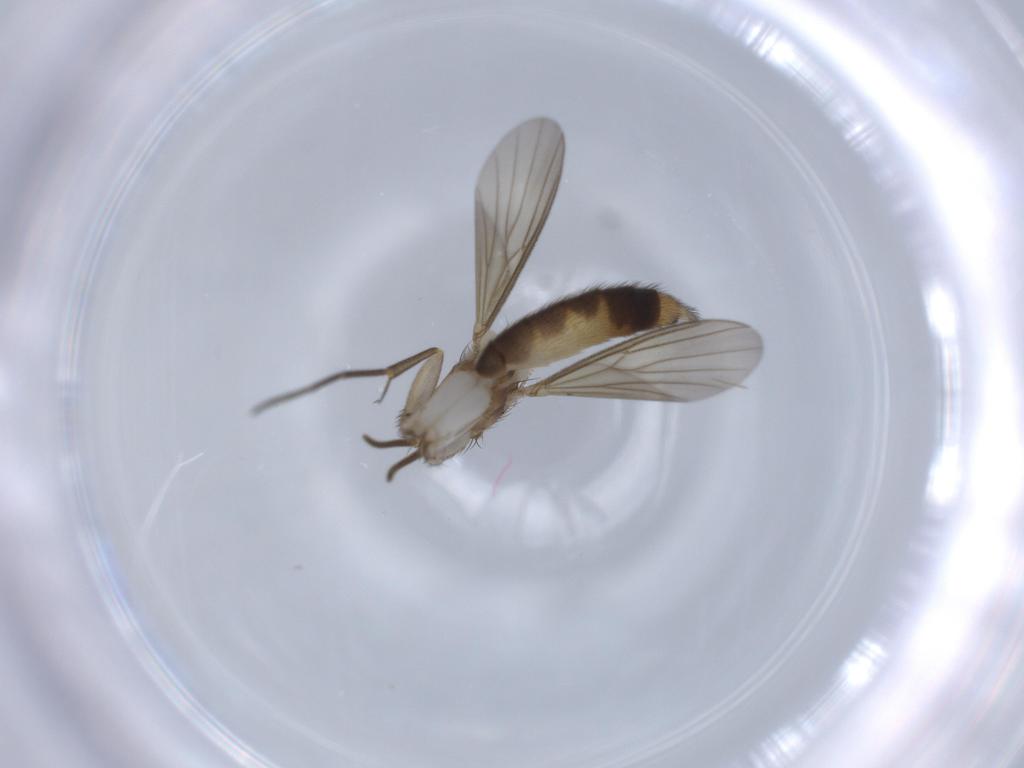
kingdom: Animalia
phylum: Arthropoda
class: Insecta
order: Diptera
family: Mycetophilidae
